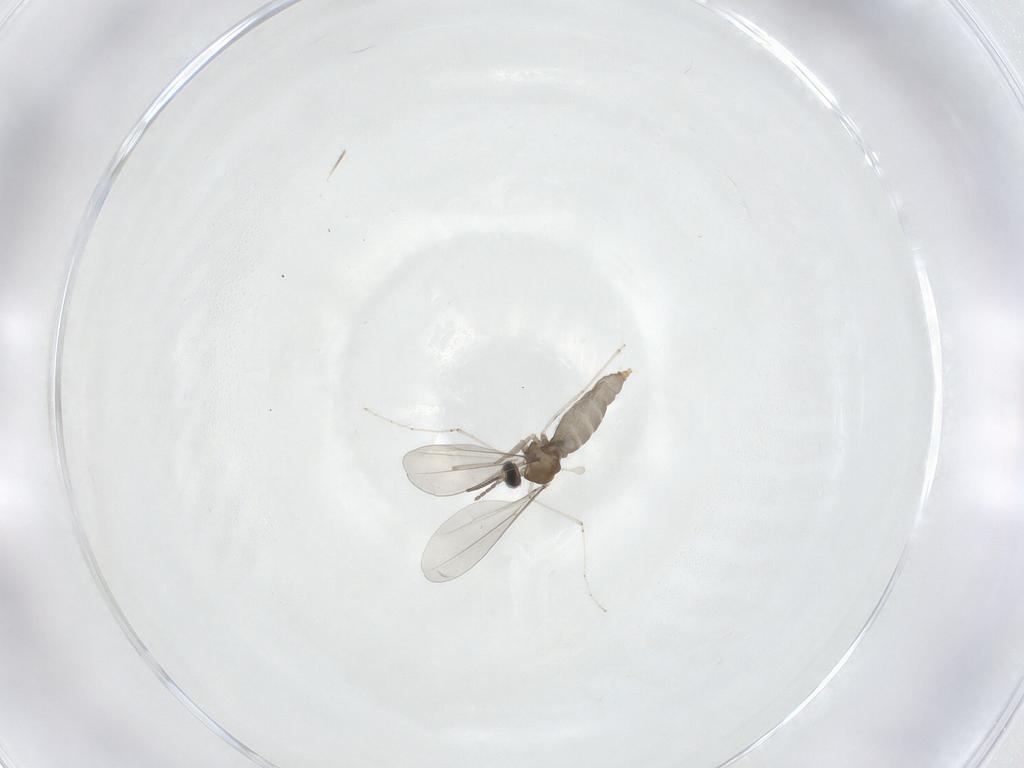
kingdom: Animalia
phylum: Arthropoda
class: Insecta
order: Diptera
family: Cecidomyiidae
